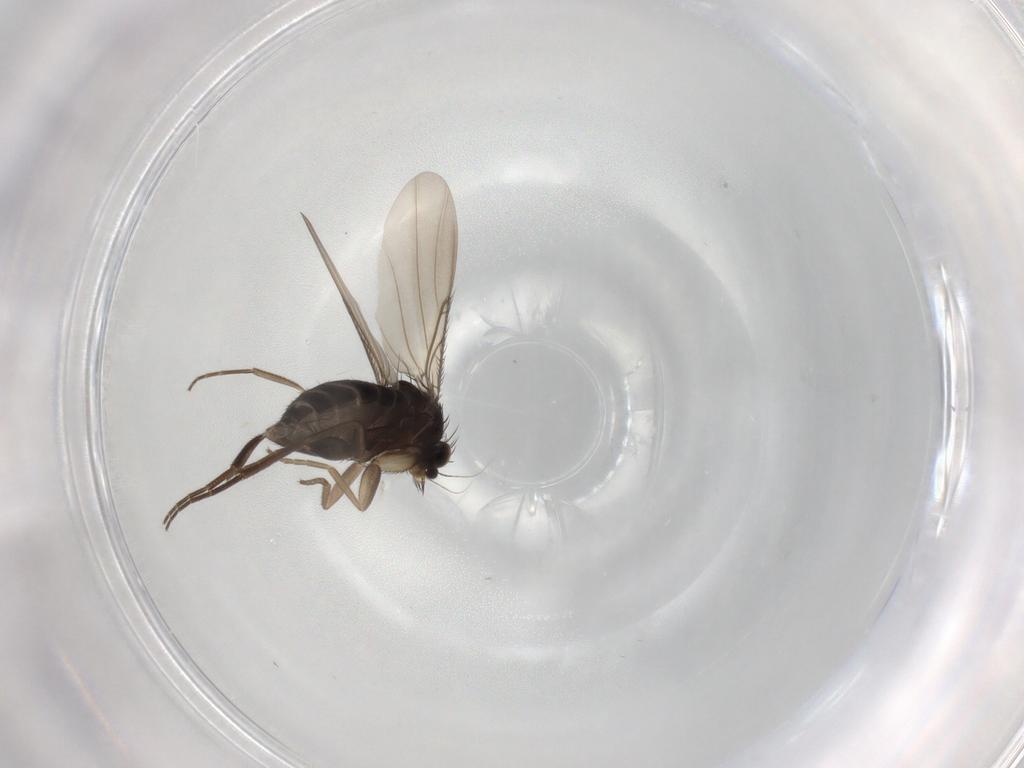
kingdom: Animalia
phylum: Arthropoda
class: Insecta
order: Diptera
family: Phoridae
